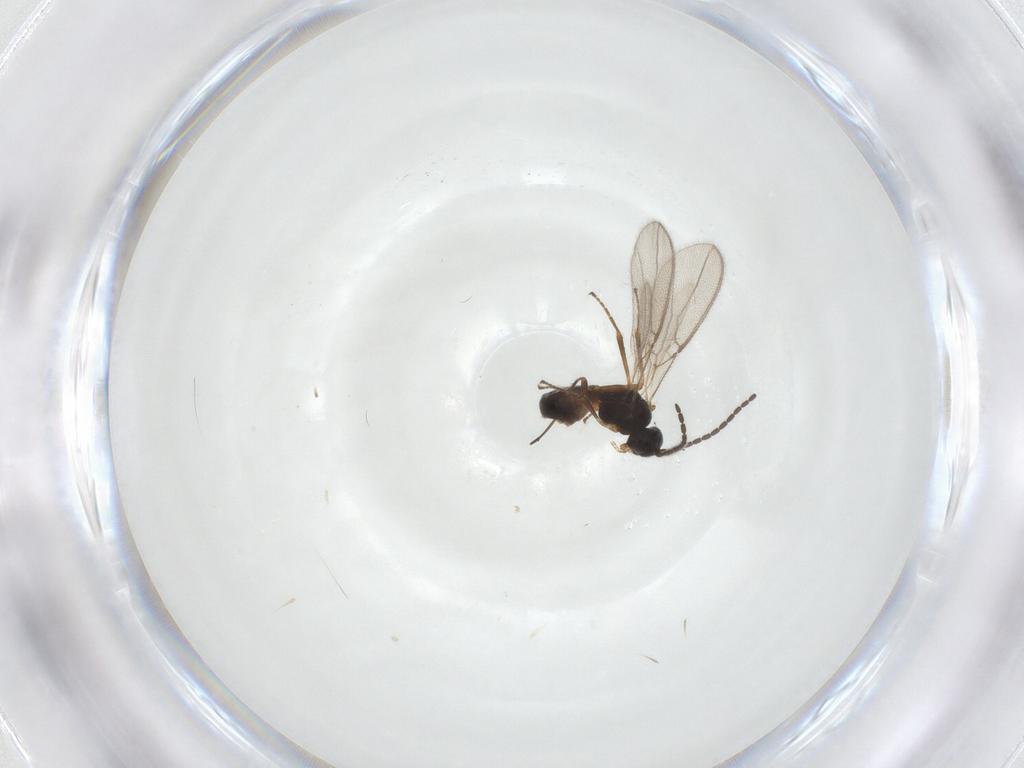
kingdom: Animalia
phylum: Arthropoda
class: Insecta
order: Hymenoptera
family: Braconidae
